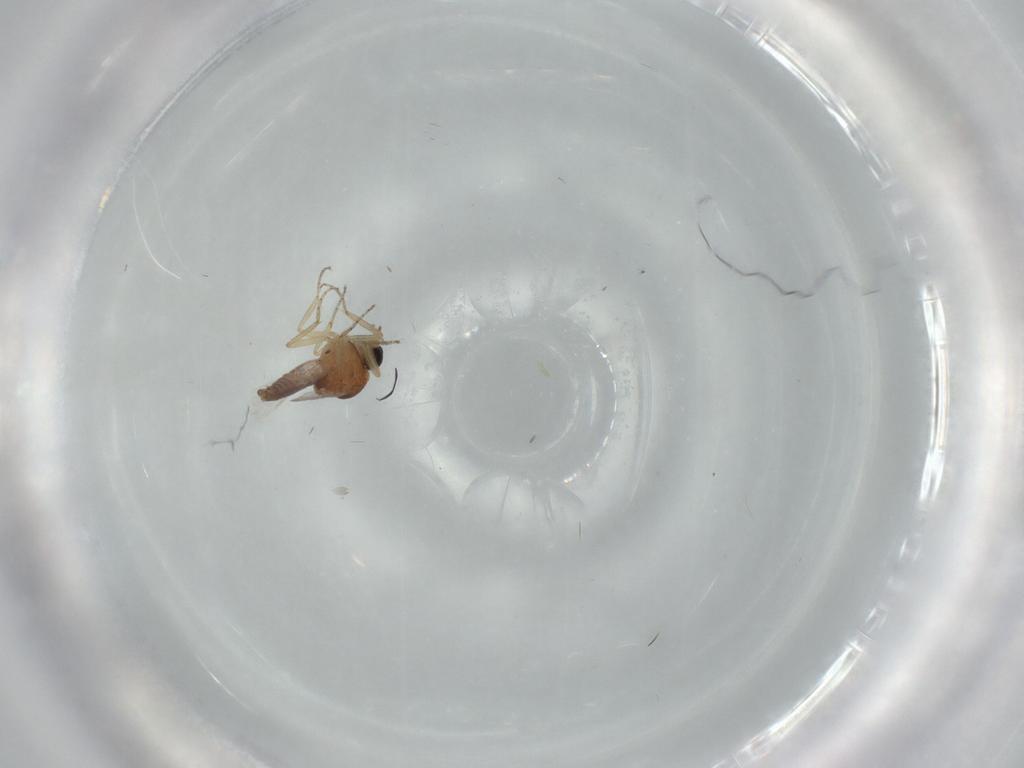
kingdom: Animalia
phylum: Arthropoda
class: Insecta
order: Diptera
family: Ceratopogonidae
